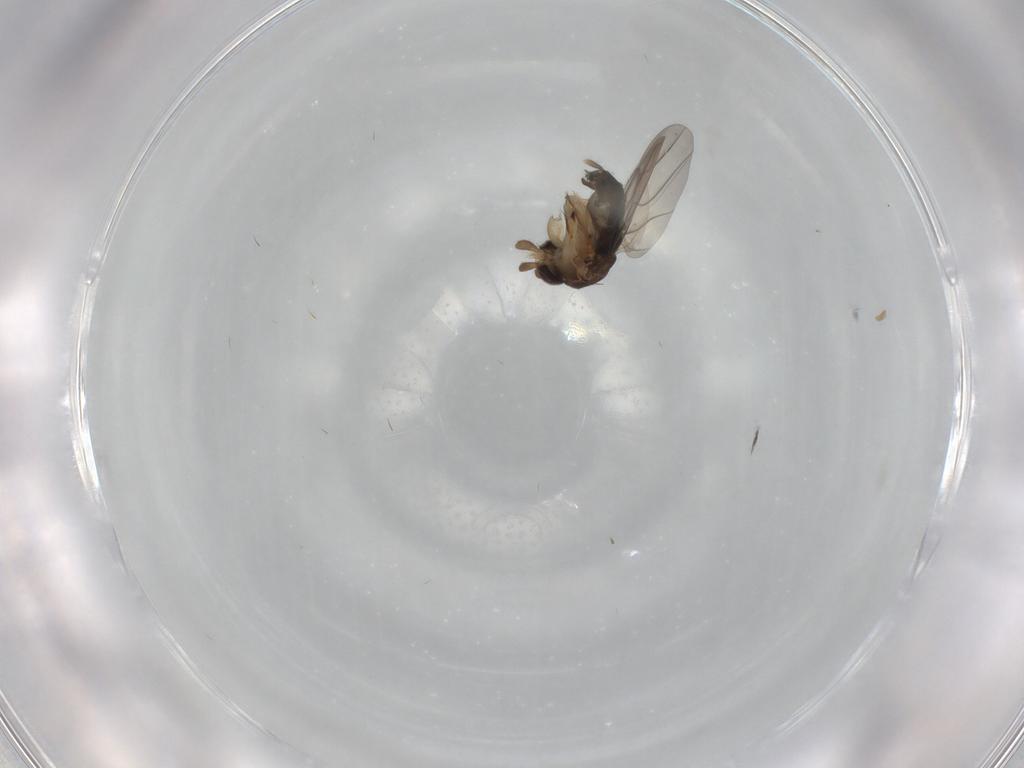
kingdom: Animalia
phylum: Arthropoda
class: Insecta
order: Diptera
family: Phoridae
